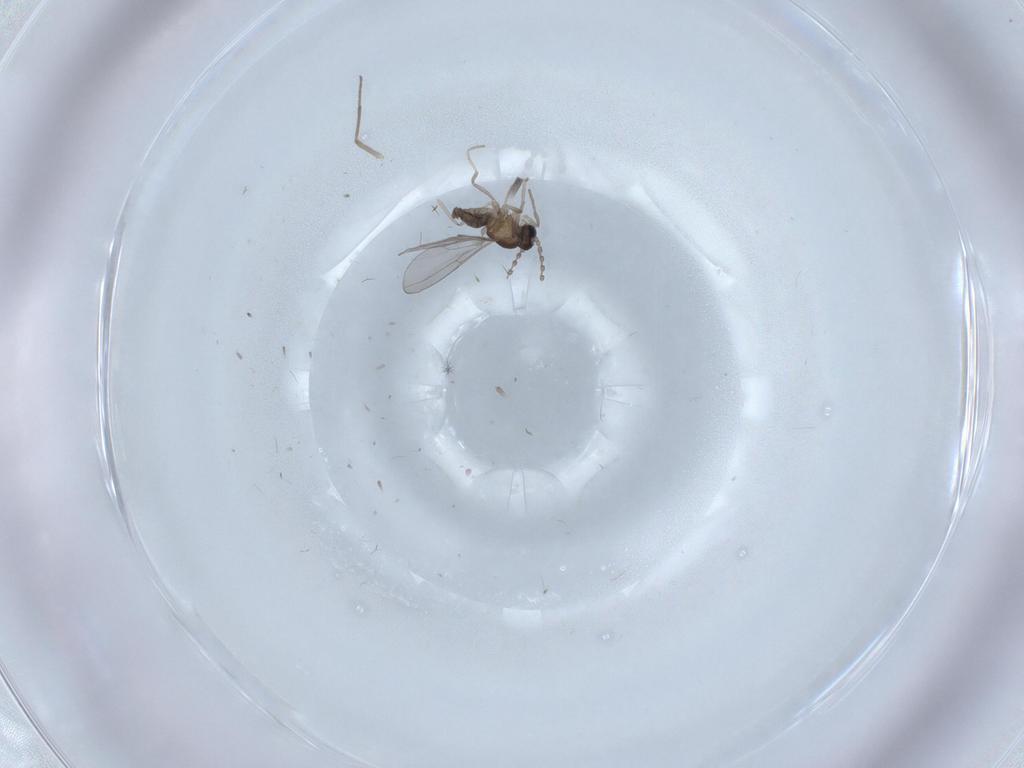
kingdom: Animalia
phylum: Arthropoda
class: Insecta
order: Diptera
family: Cecidomyiidae
